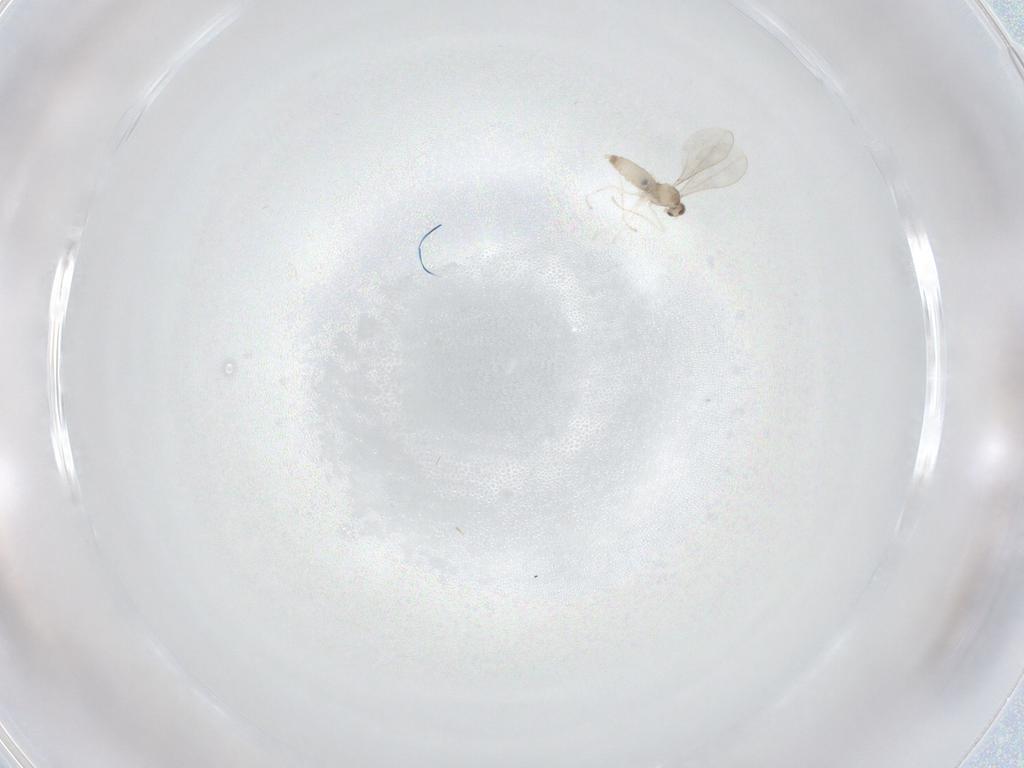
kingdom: Animalia
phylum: Arthropoda
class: Insecta
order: Diptera
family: Cecidomyiidae
